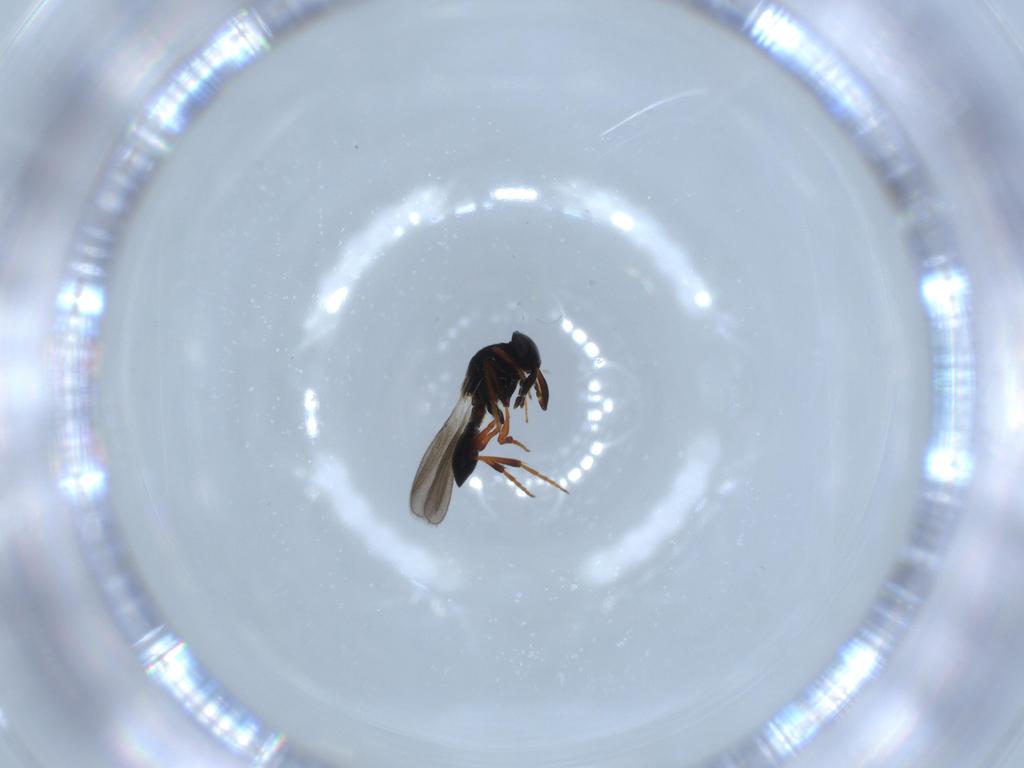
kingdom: Animalia
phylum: Arthropoda
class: Insecta
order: Hymenoptera
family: Platygastridae
